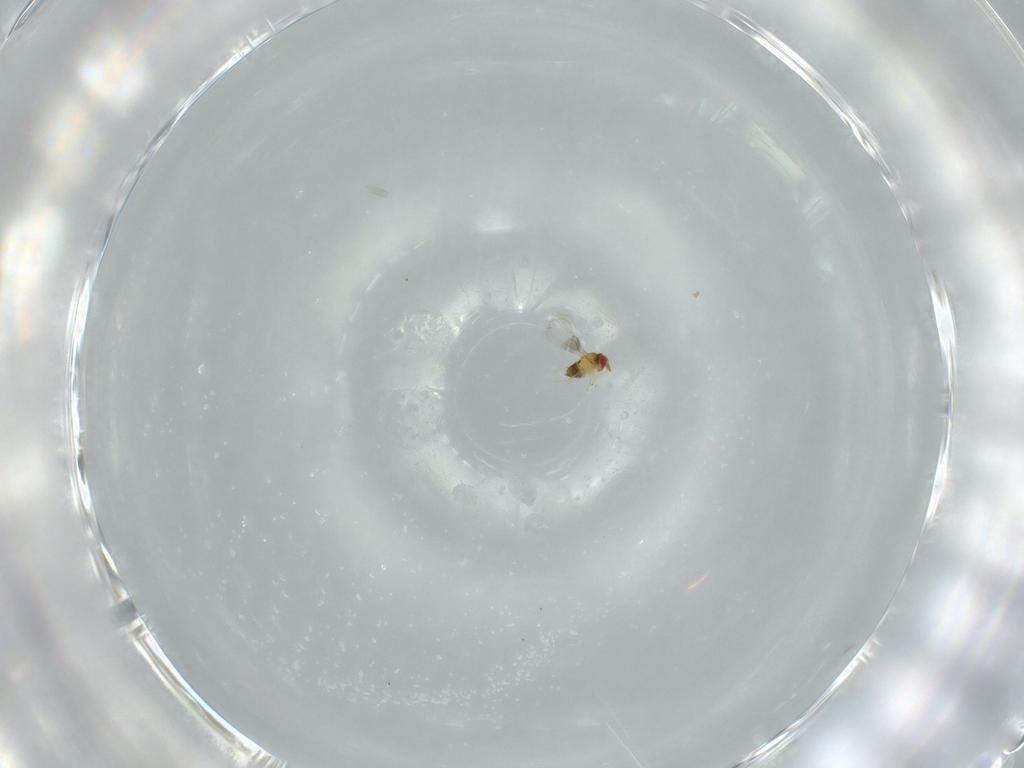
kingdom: Animalia
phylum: Arthropoda
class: Insecta
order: Hymenoptera
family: Trichogrammatidae
